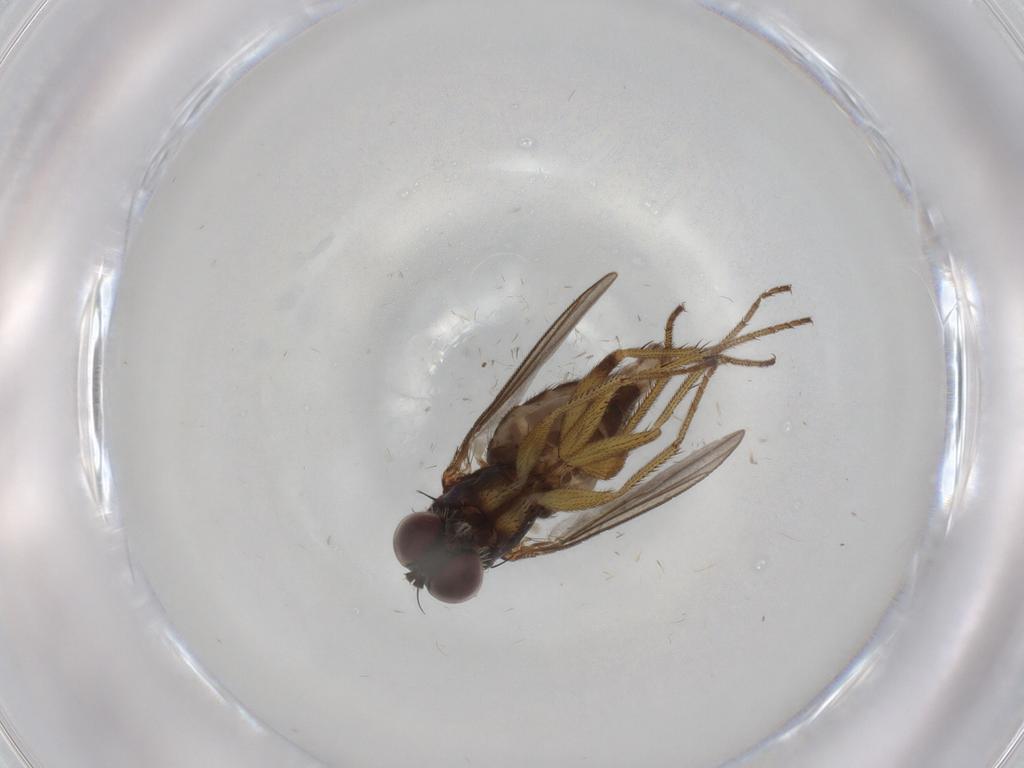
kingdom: Animalia
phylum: Arthropoda
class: Insecta
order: Diptera
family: Dolichopodidae
